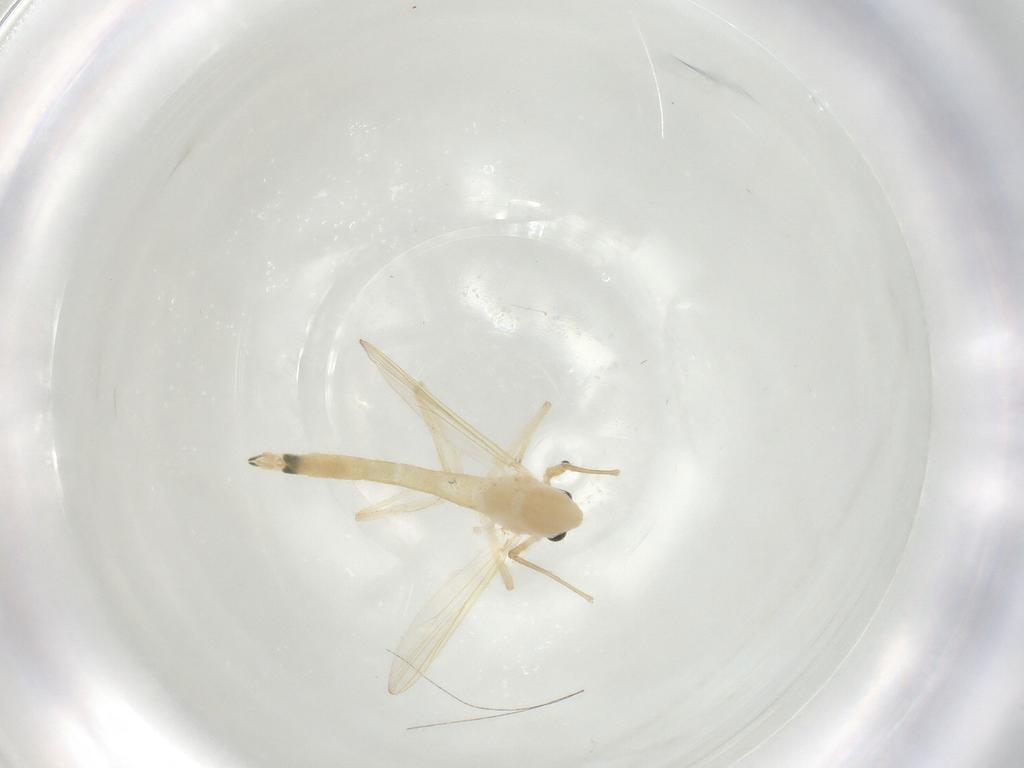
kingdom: Animalia
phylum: Arthropoda
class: Insecta
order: Diptera
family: Chironomidae
